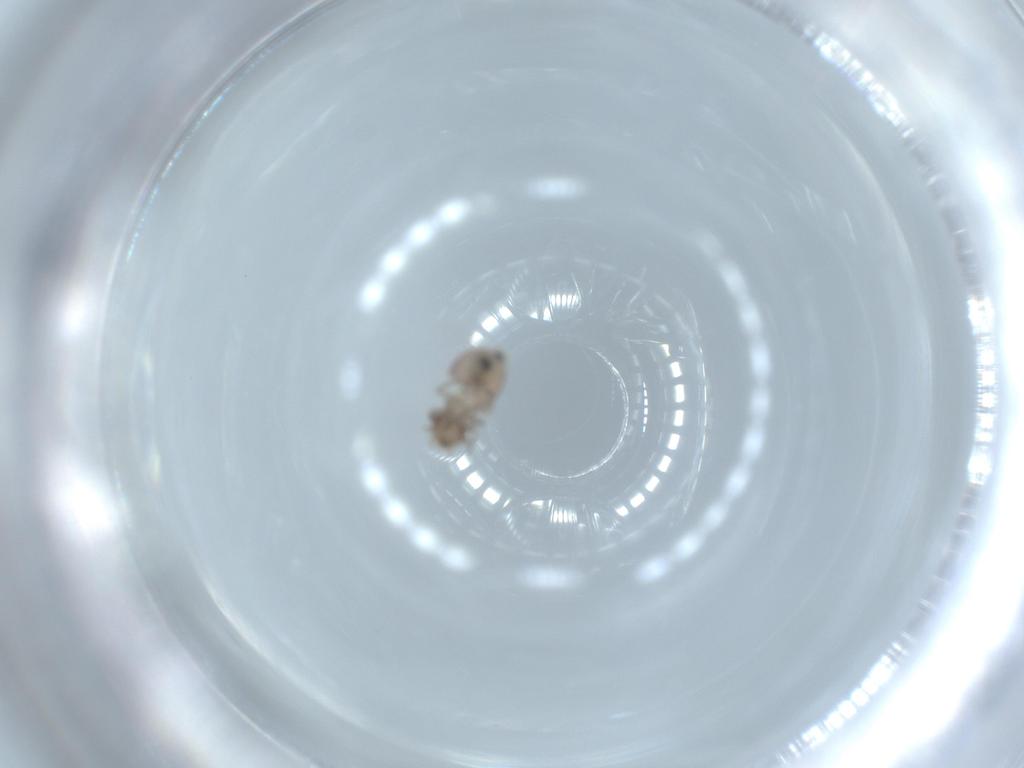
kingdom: Animalia
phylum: Arthropoda
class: Insecta
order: Psocodea
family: Myopsocidae
